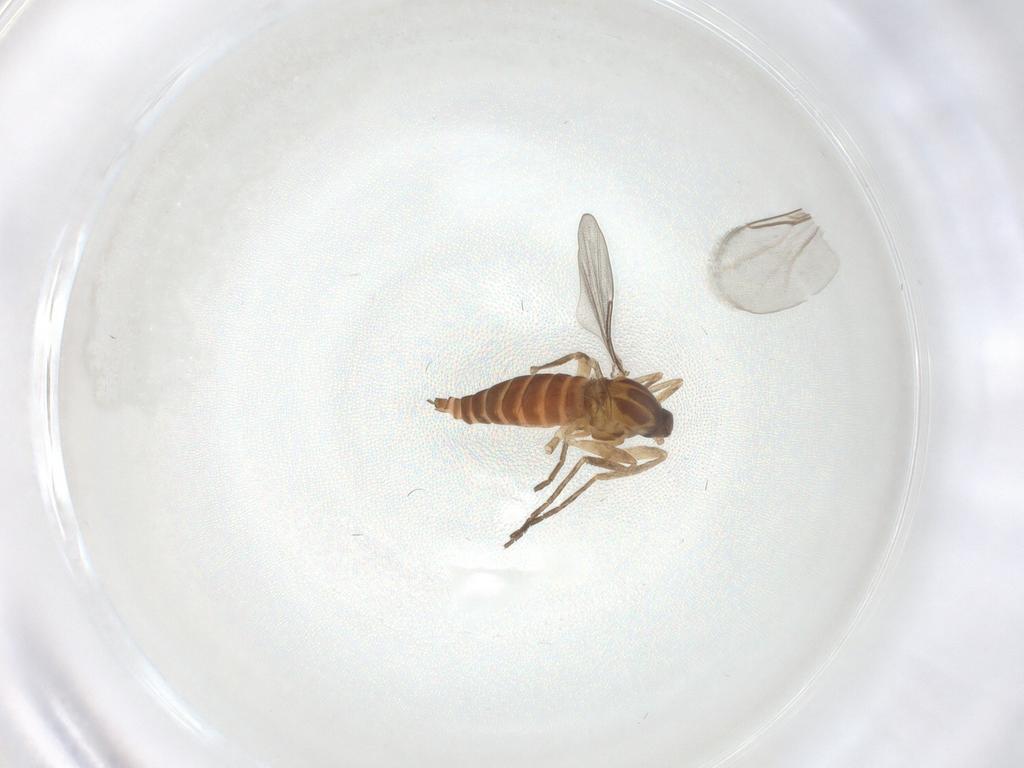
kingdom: Animalia
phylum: Arthropoda
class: Insecta
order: Diptera
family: Cecidomyiidae
